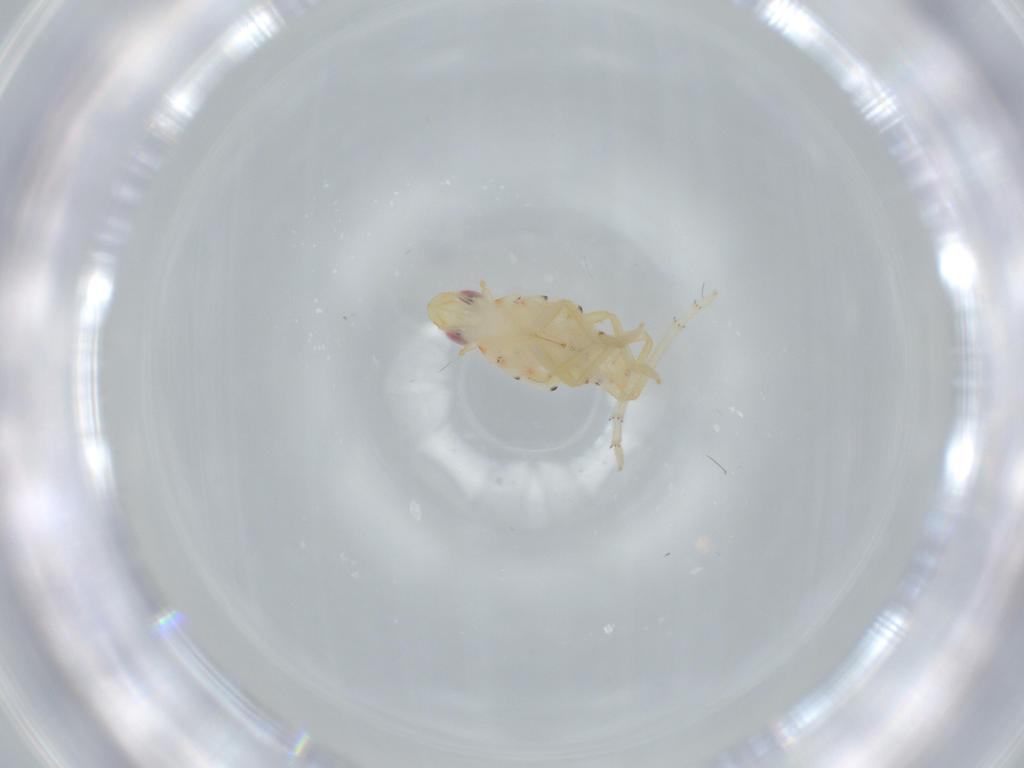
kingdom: Animalia
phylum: Arthropoda
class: Insecta
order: Hemiptera
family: Tropiduchidae
